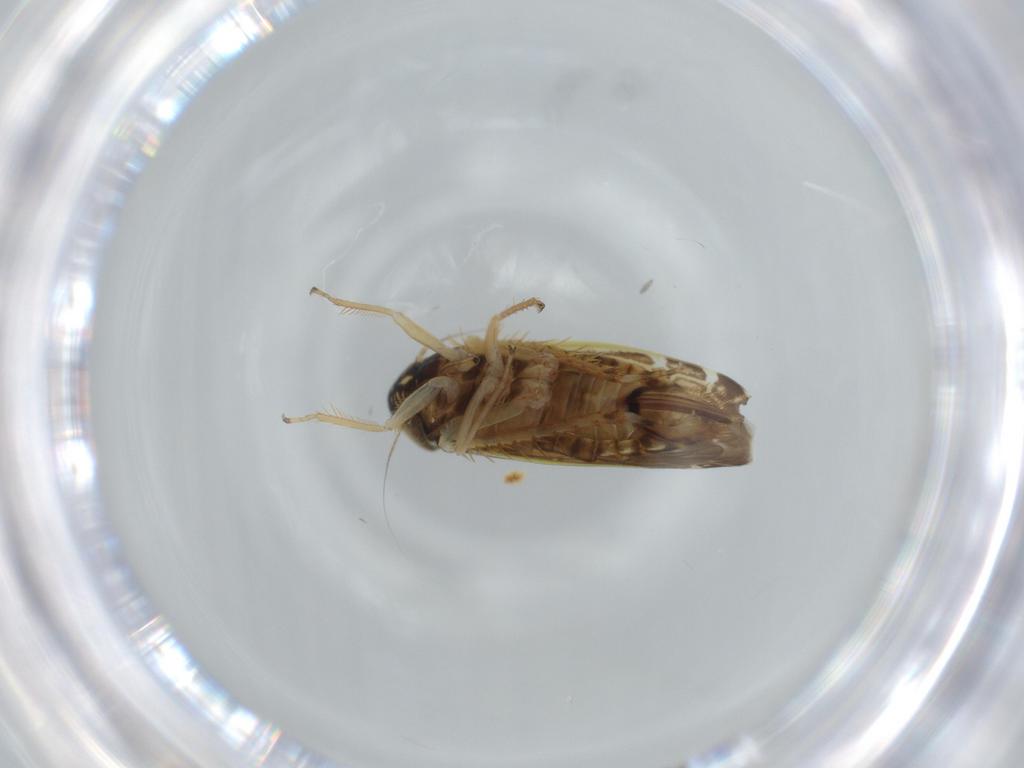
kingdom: Animalia
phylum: Arthropoda
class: Insecta
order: Hemiptera
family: Cicadellidae
